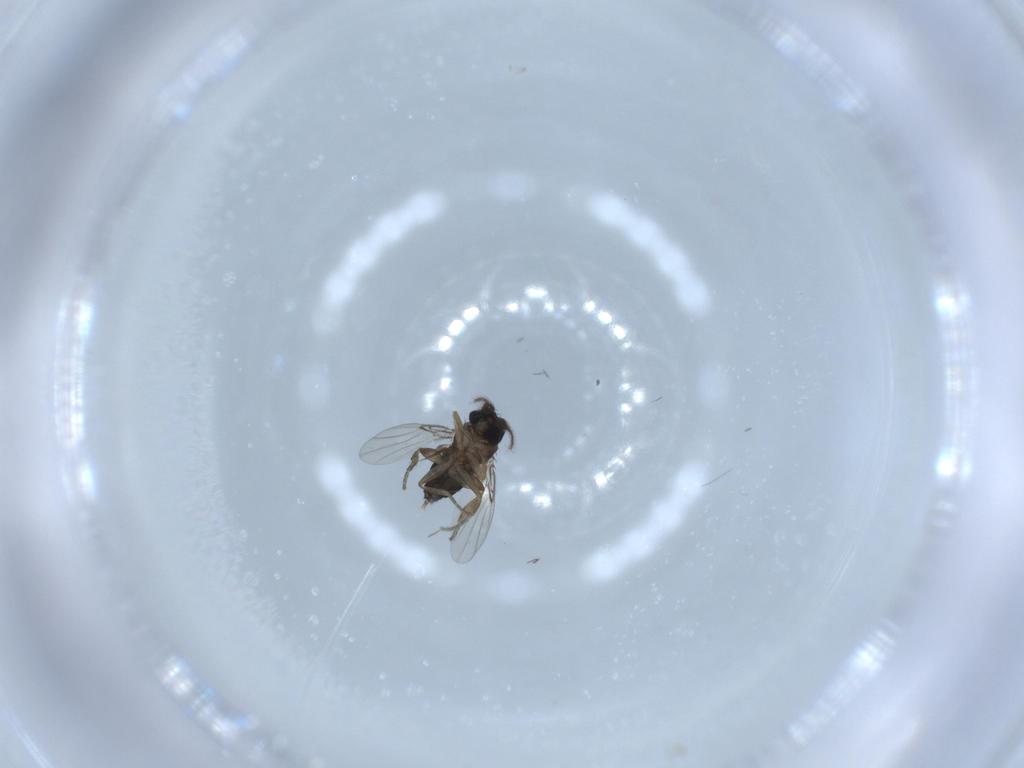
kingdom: Animalia
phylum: Arthropoda
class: Insecta
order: Diptera
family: Phoridae
